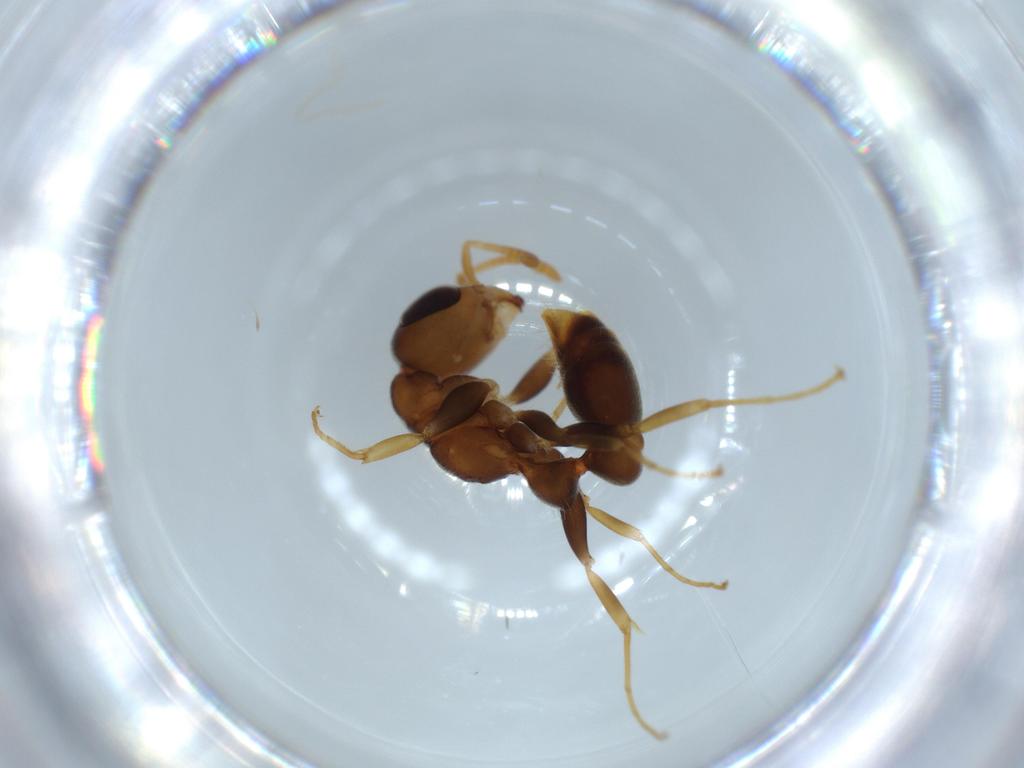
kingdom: Animalia
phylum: Arthropoda
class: Insecta
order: Hymenoptera
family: Formicidae
